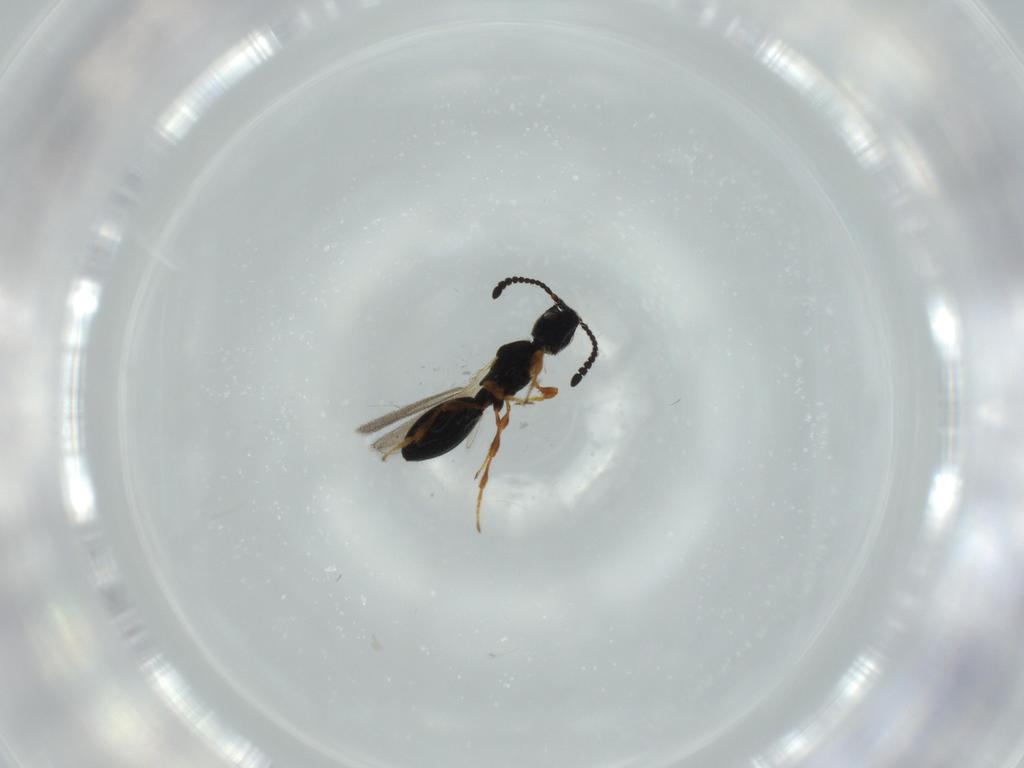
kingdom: Animalia
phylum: Arthropoda
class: Insecta
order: Hymenoptera
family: Diapriidae
